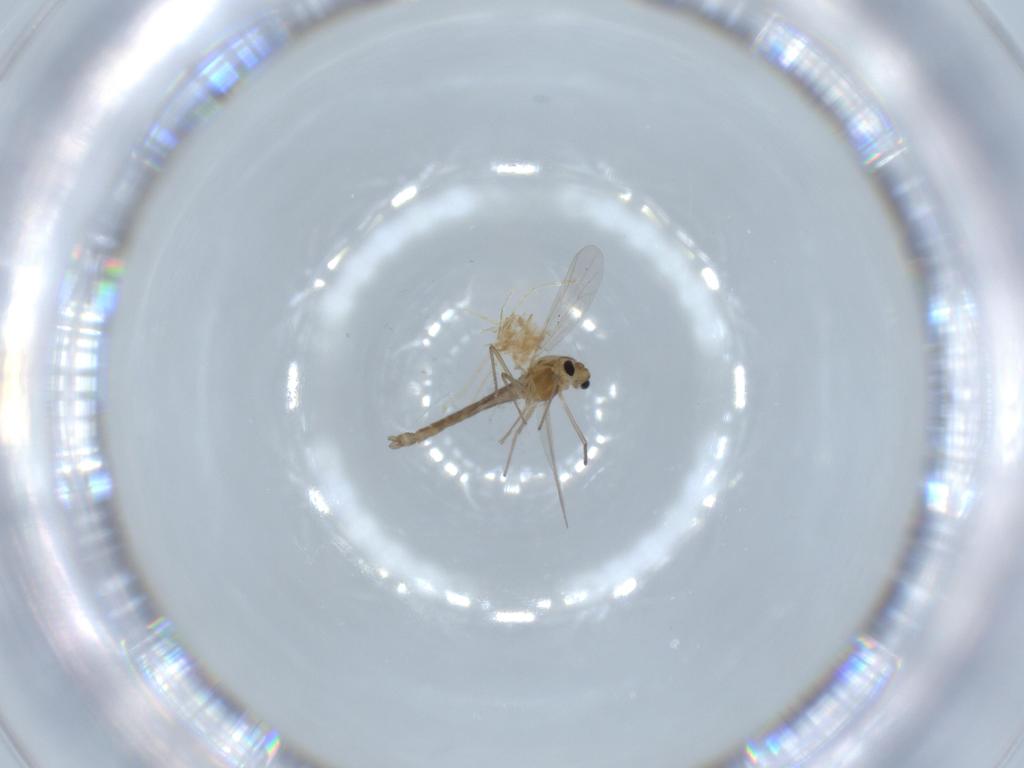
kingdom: Animalia
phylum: Arthropoda
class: Insecta
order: Diptera
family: Chironomidae
